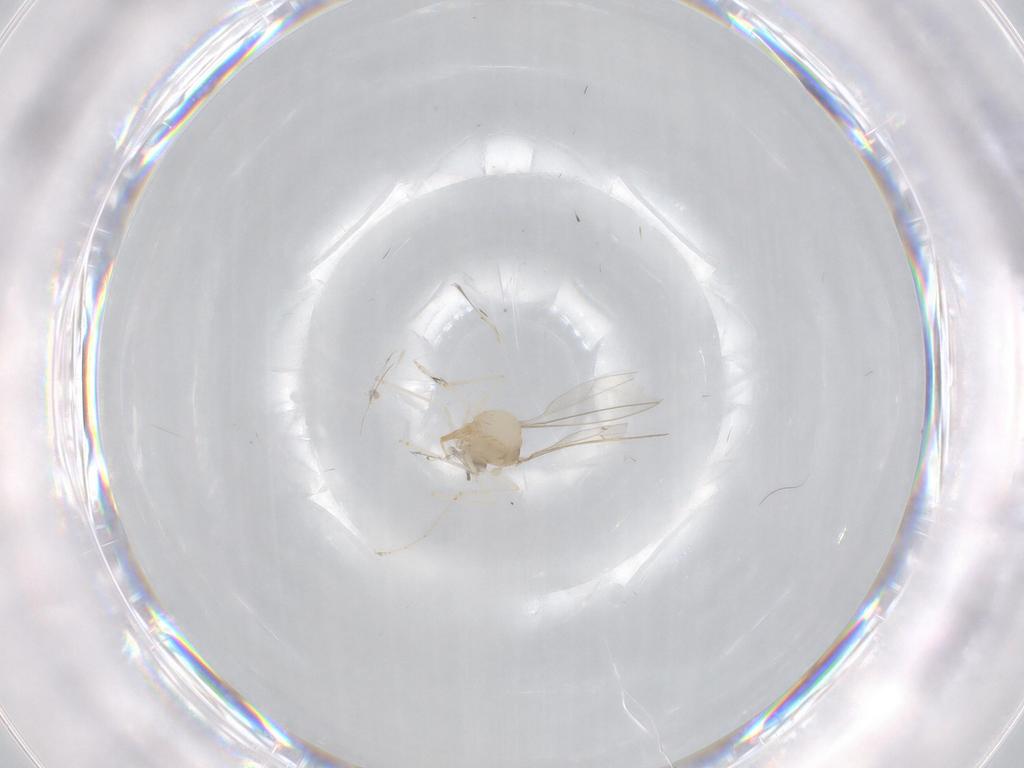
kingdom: Animalia
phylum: Arthropoda
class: Insecta
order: Diptera
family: Cecidomyiidae
